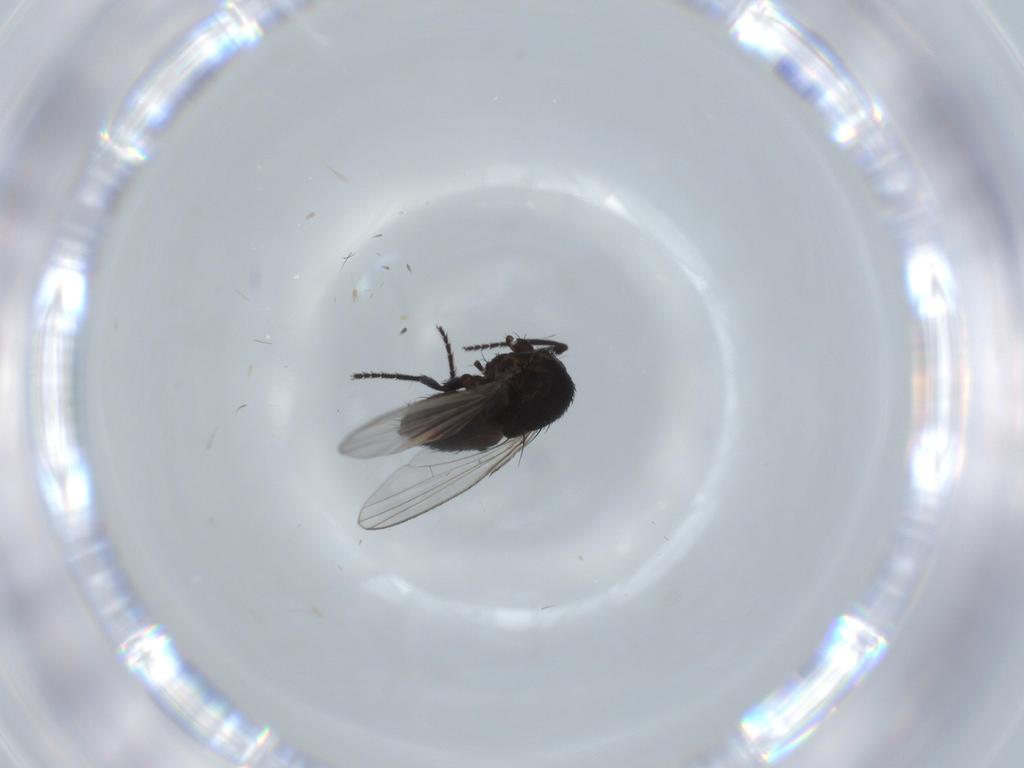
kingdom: Animalia
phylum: Arthropoda
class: Insecta
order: Diptera
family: Milichiidae
